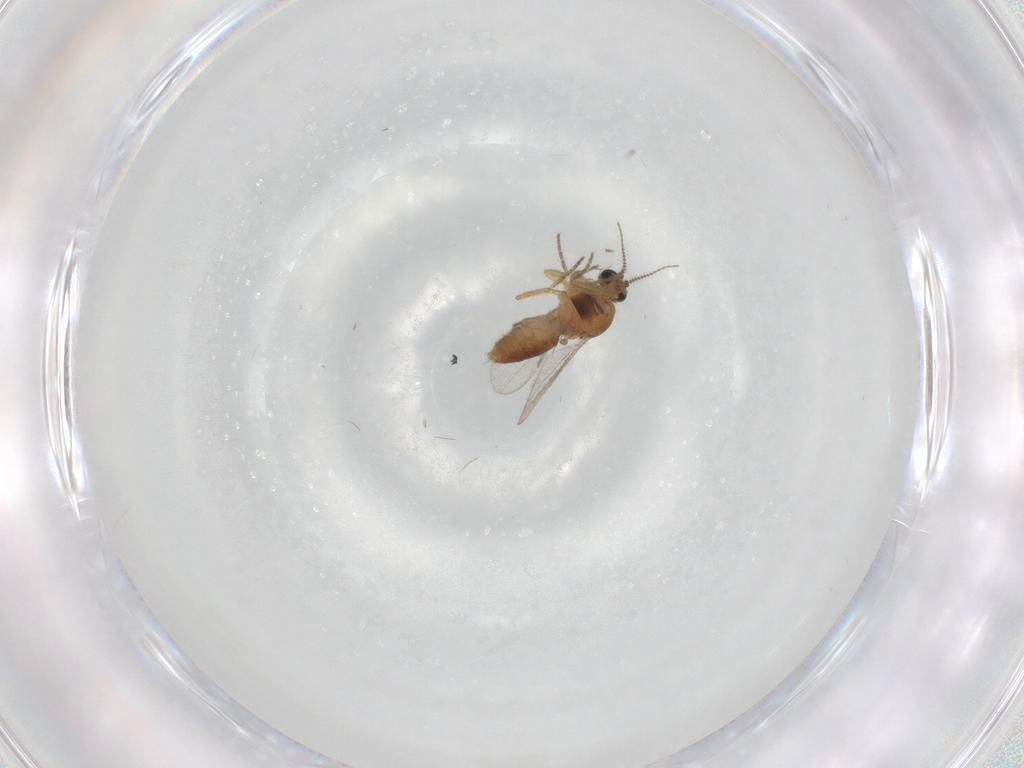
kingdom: Animalia
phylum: Arthropoda
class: Insecta
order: Diptera
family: Ceratopogonidae
